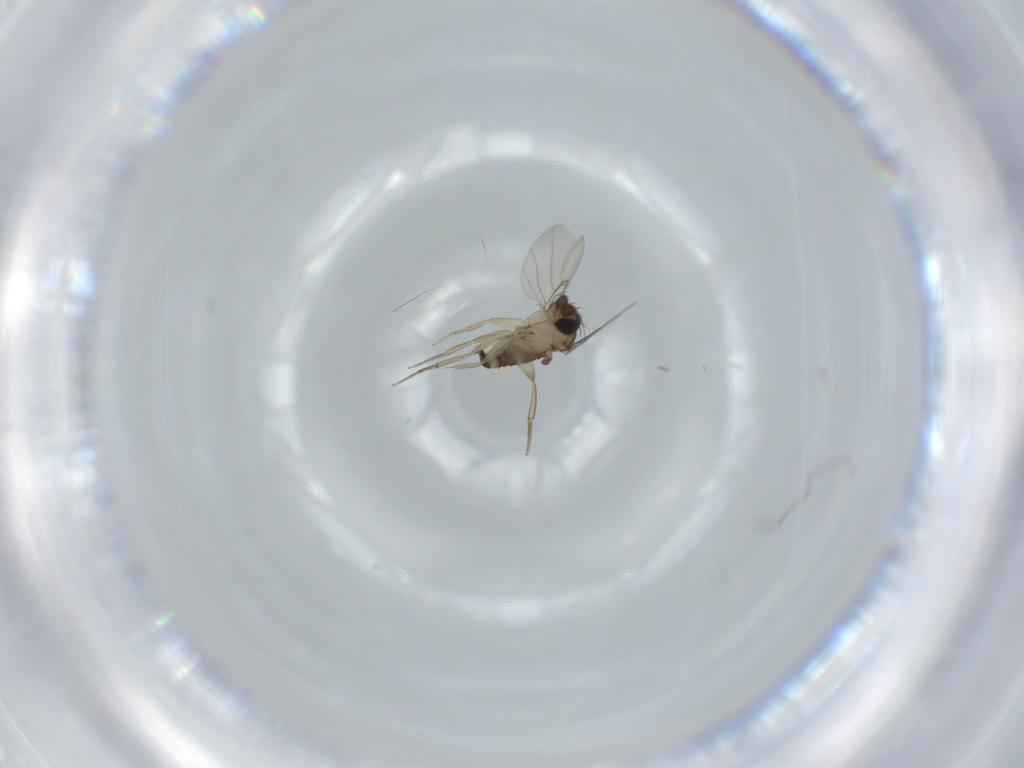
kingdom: Animalia
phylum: Arthropoda
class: Insecta
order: Diptera
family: Phoridae
